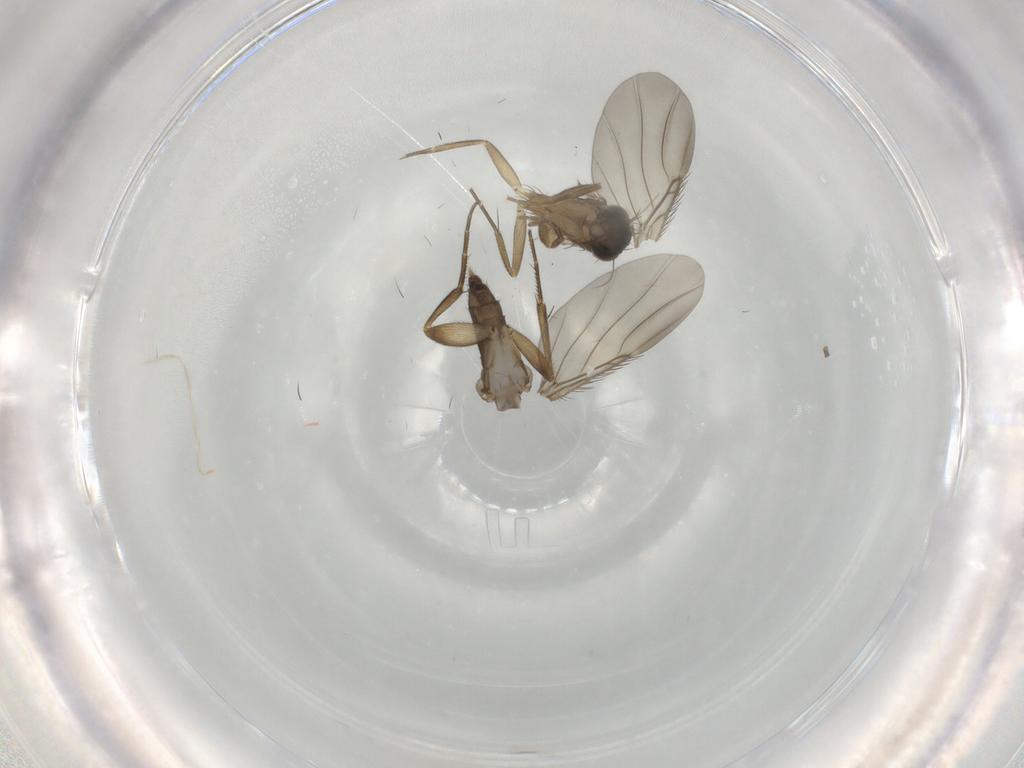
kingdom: Animalia
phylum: Arthropoda
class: Insecta
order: Diptera
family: Phoridae
